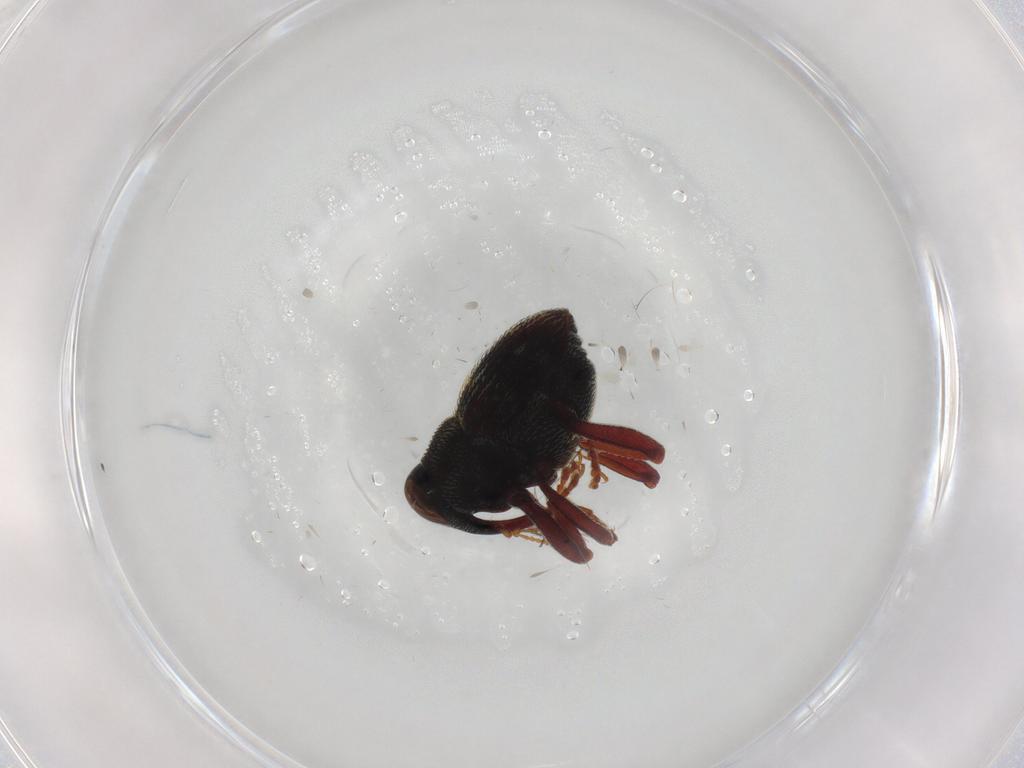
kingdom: Animalia
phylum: Arthropoda
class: Insecta
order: Coleoptera
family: Curculionidae
